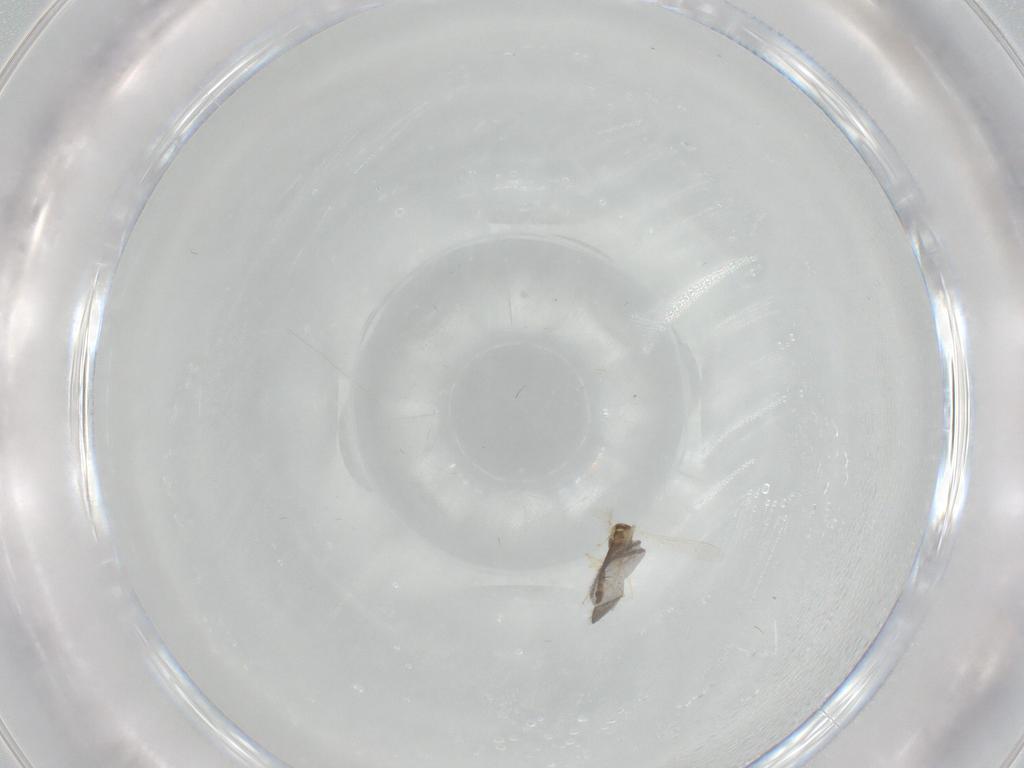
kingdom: Animalia
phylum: Arthropoda
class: Insecta
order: Diptera
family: Chironomidae
